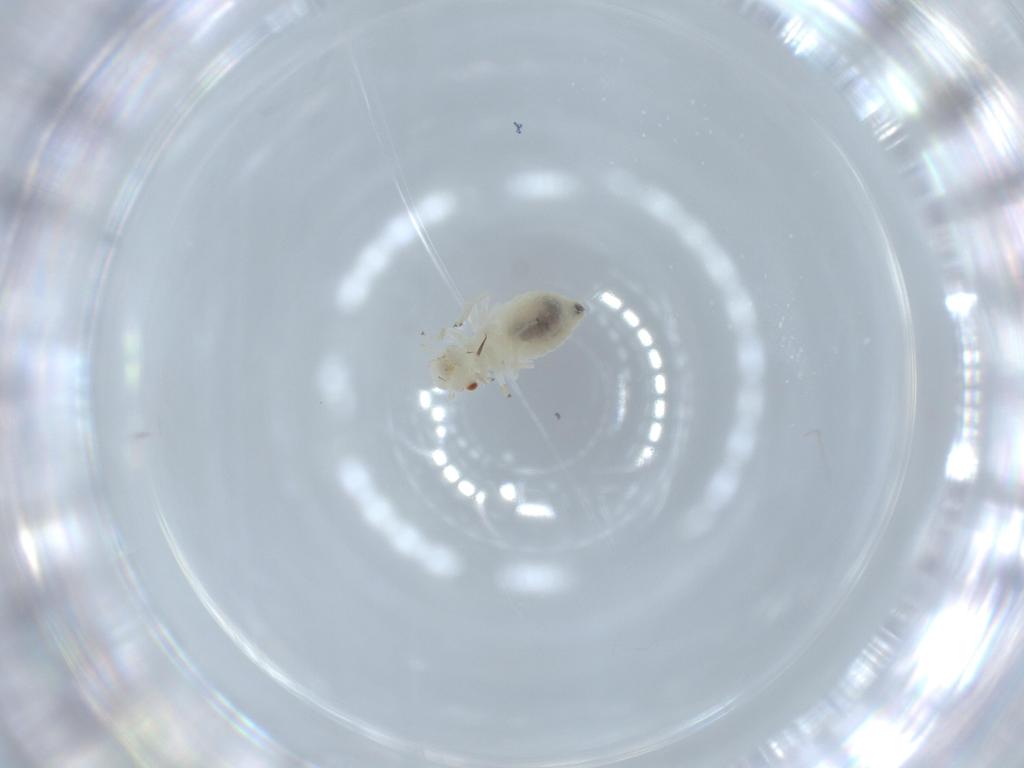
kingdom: Animalia
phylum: Arthropoda
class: Insecta
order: Psocodea
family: Caeciliusidae
